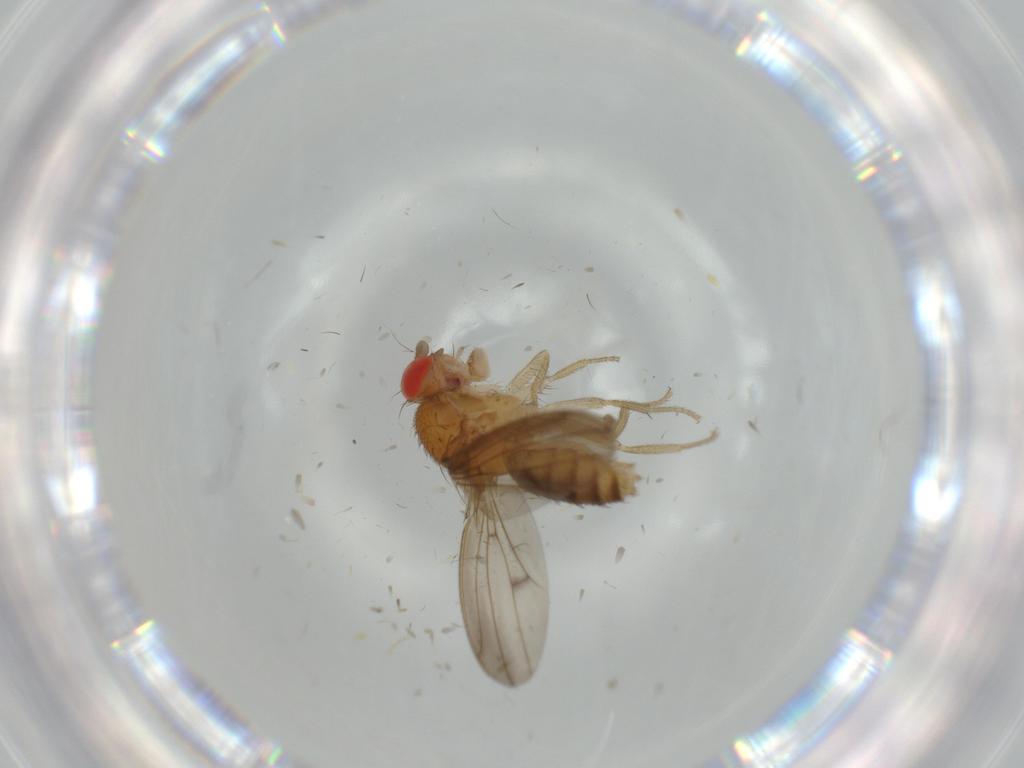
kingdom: Animalia
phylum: Arthropoda
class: Insecta
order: Diptera
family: Drosophilidae
